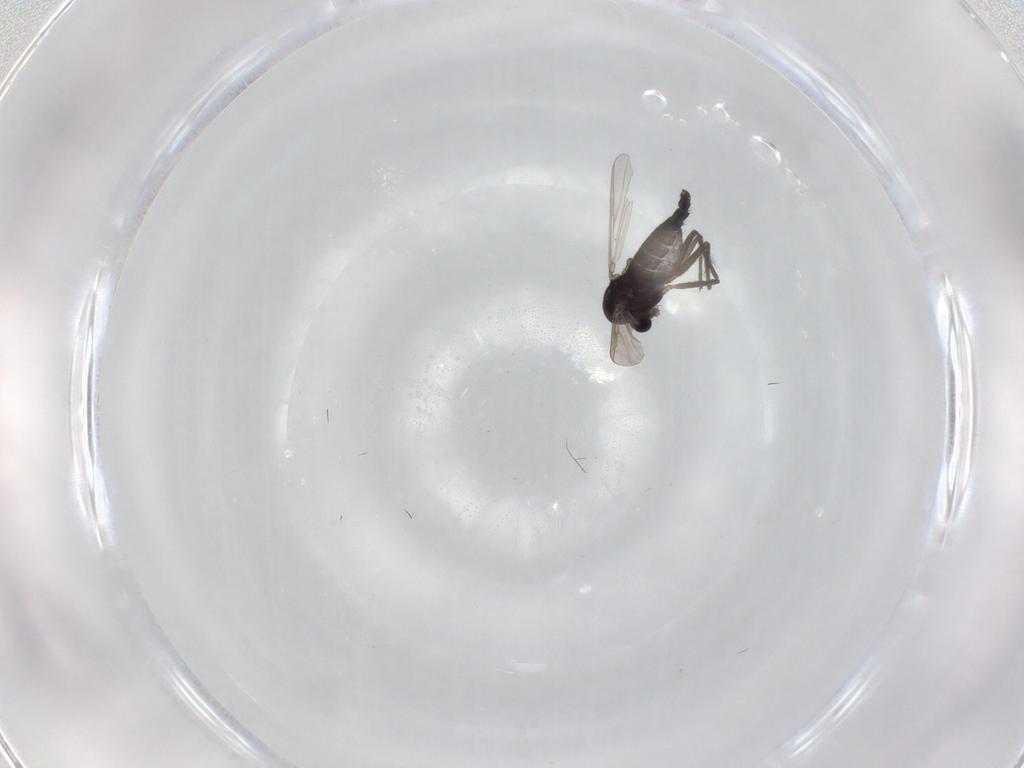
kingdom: Animalia
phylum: Arthropoda
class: Insecta
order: Diptera
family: Chironomidae
